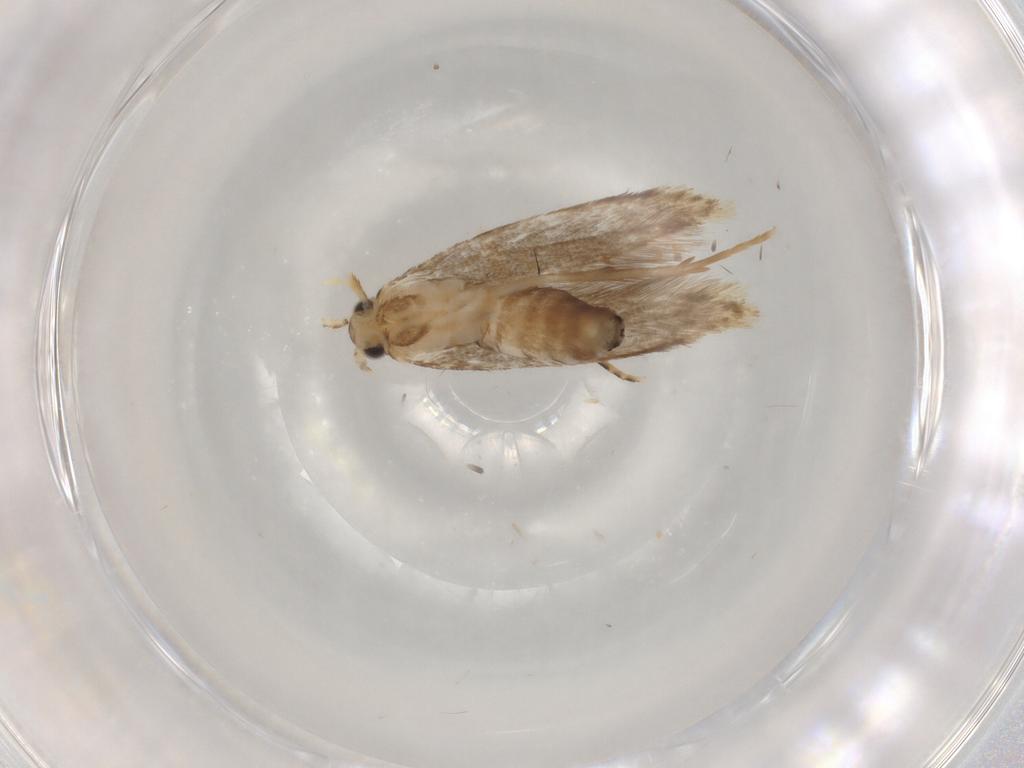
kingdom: Animalia
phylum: Arthropoda
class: Insecta
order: Lepidoptera
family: Dryadaulidae
